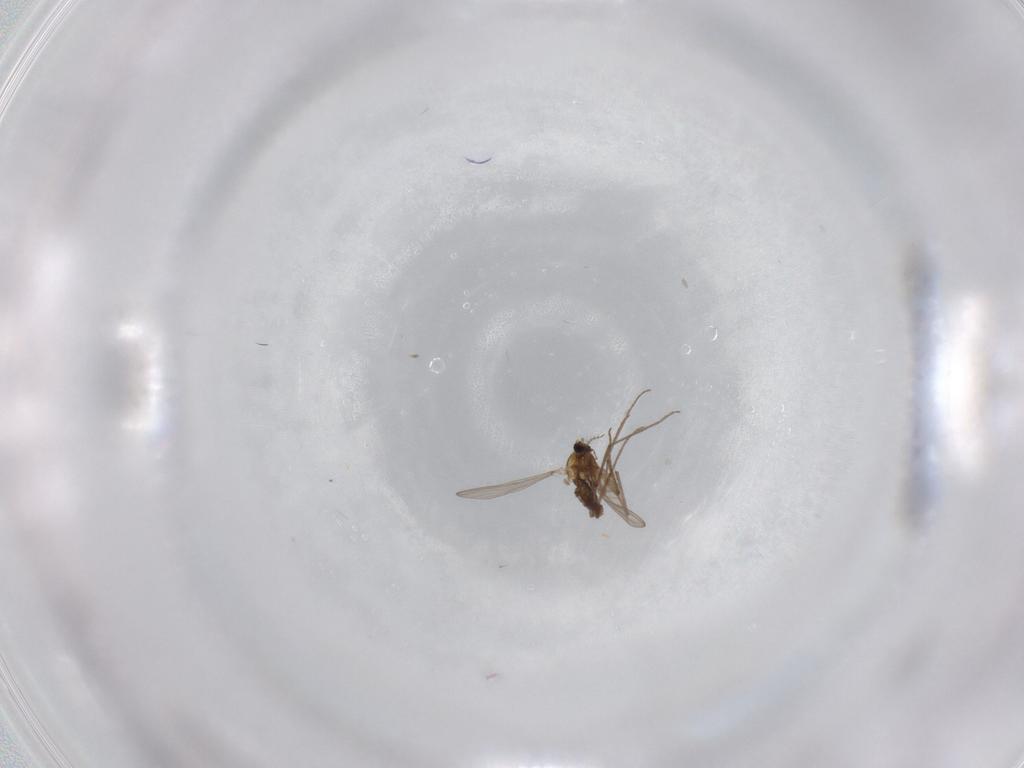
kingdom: Animalia
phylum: Arthropoda
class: Insecta
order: Diptera
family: Chironomidae
